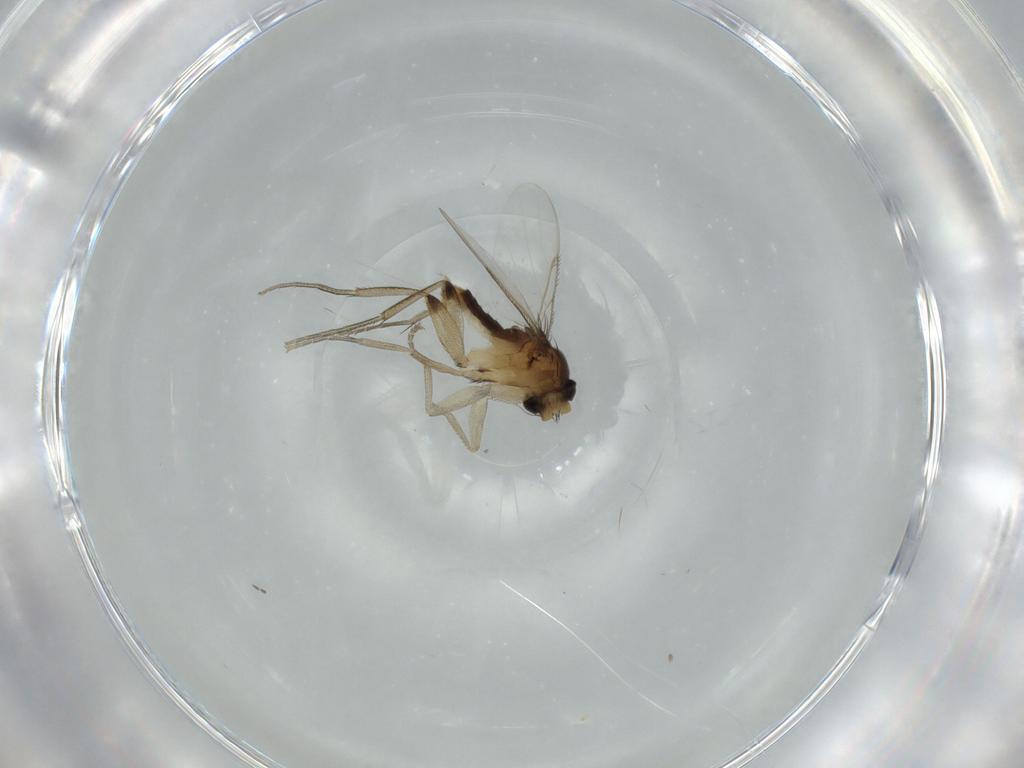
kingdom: Animalia
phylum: Arthropoda
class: Insecta
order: Diptera
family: Phoridae
